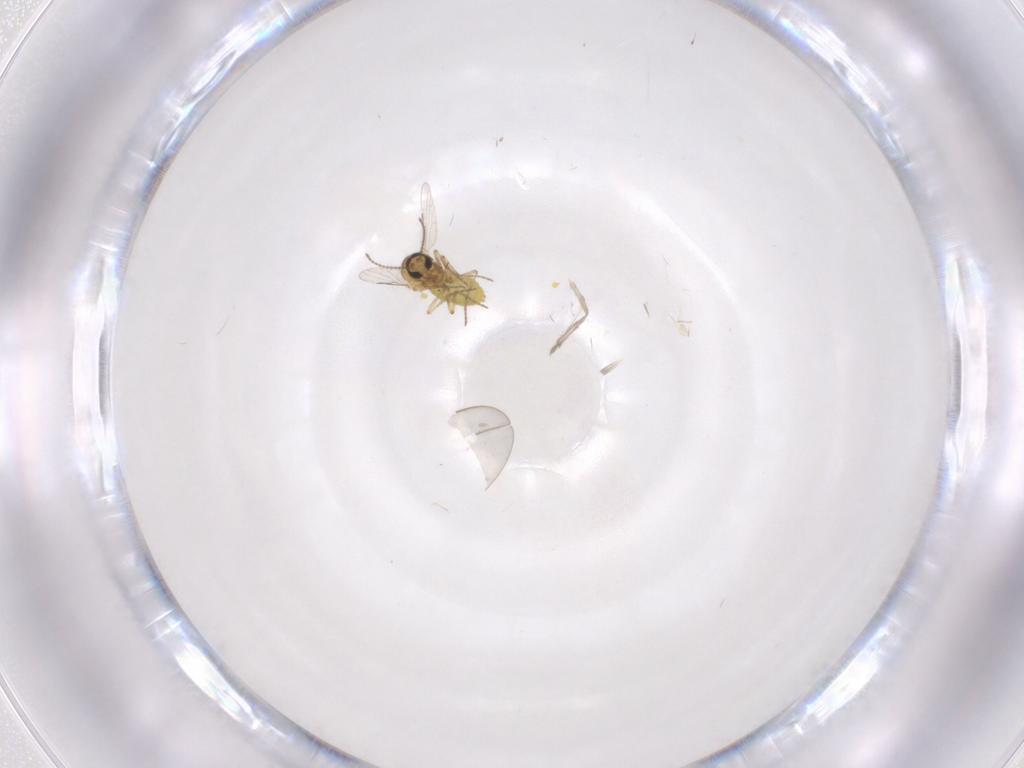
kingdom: Animalia
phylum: Arthropoda
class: Insecta
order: Diptera
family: Ceratopogonidae
